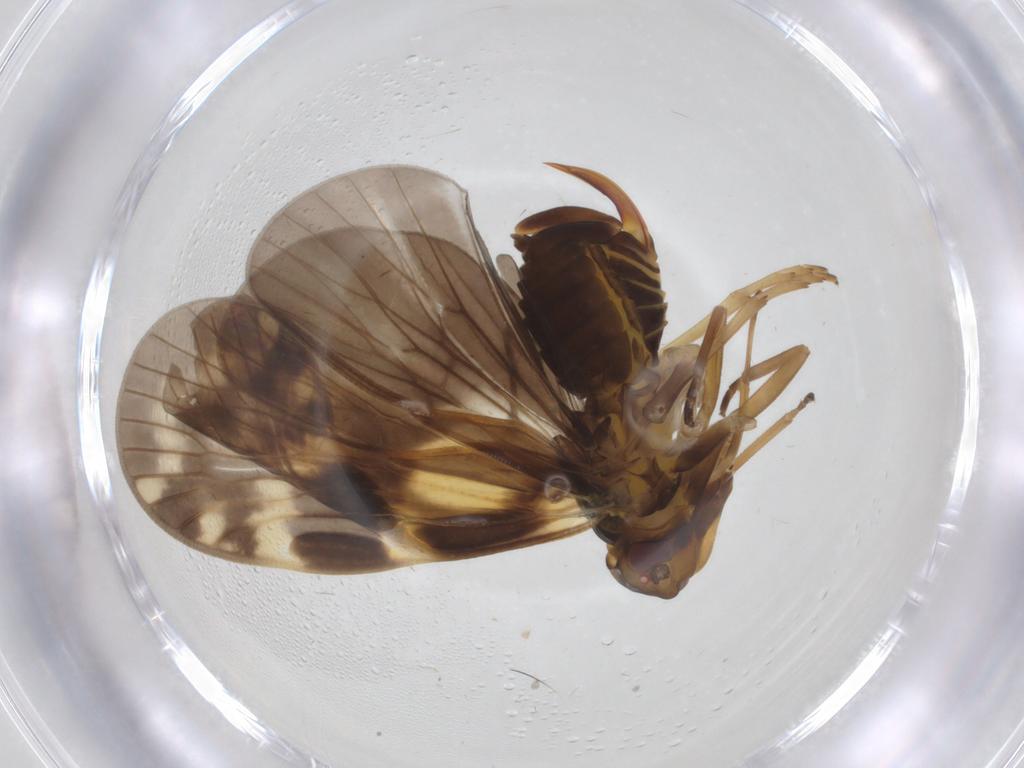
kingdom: Animalia
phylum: Arthropoda
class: Insecta
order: Hemiptera
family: Cixiidae
